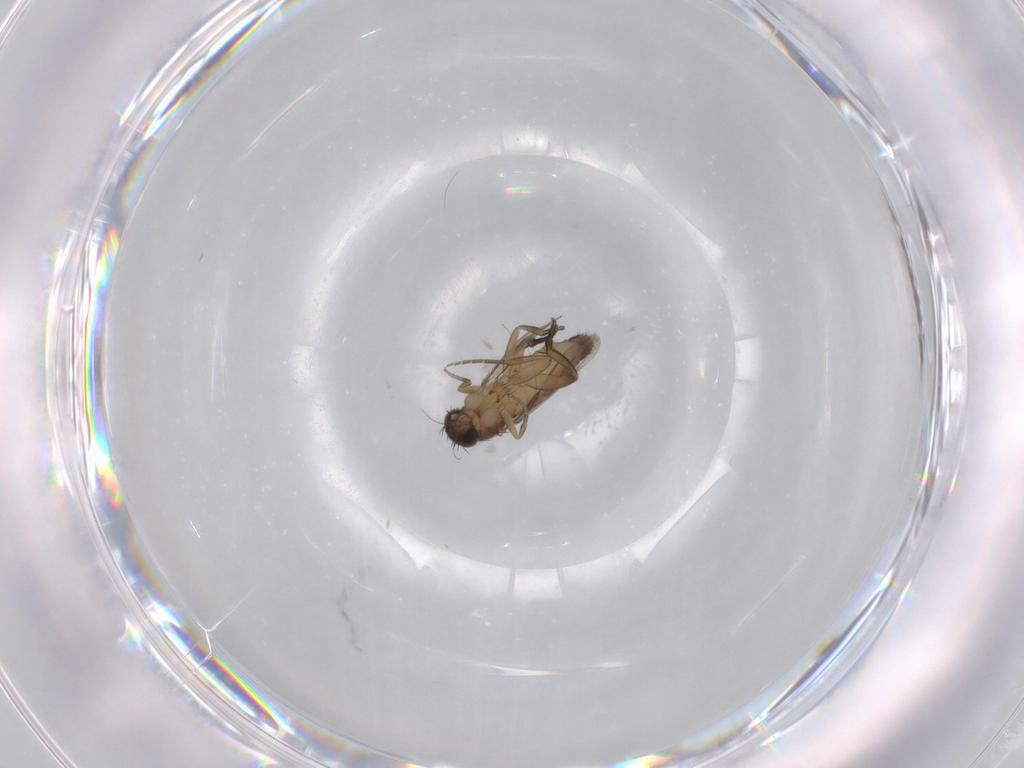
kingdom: Animalia
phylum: Arthropoda
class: Insecta
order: Diptera
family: Phoridae
